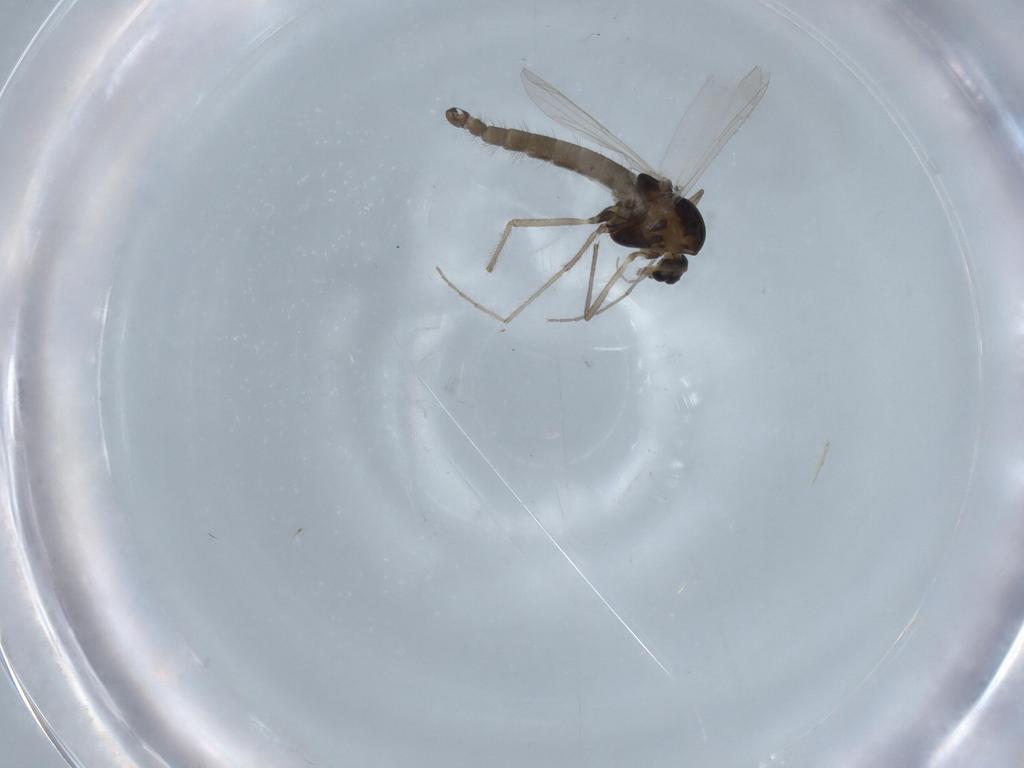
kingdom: Animalia
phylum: Arthropoda
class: Insecta
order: Diptera
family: Chironomidae
